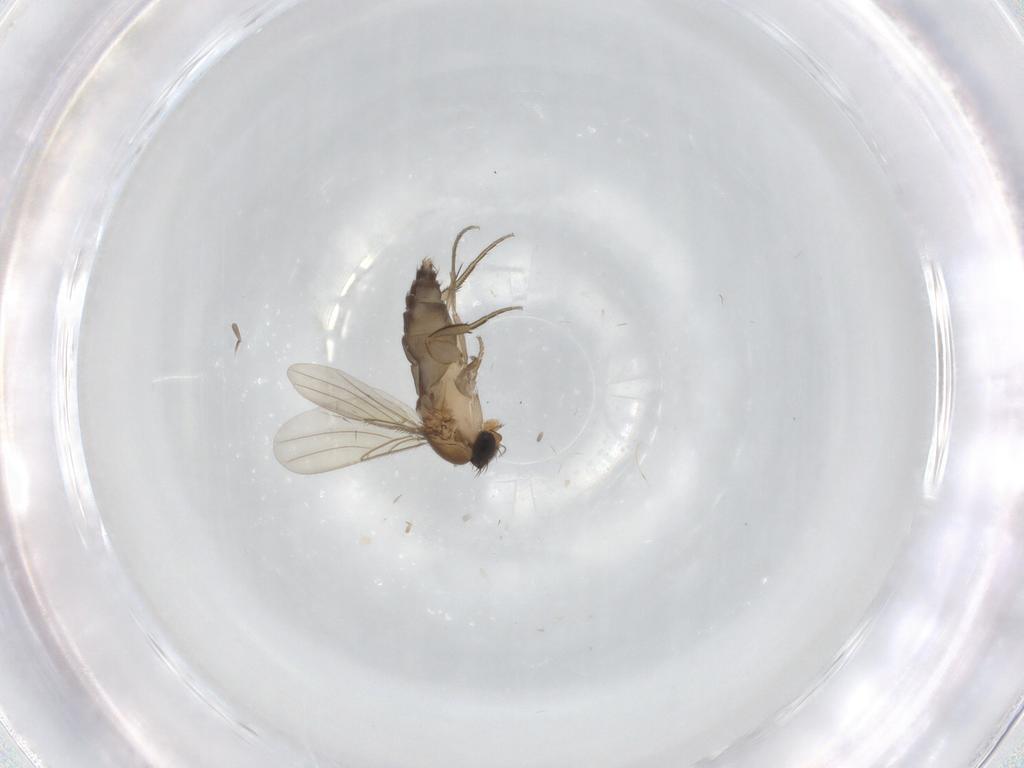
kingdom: Animalia
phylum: Arthropoda
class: Insecta
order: Diptera
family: Phoridae
